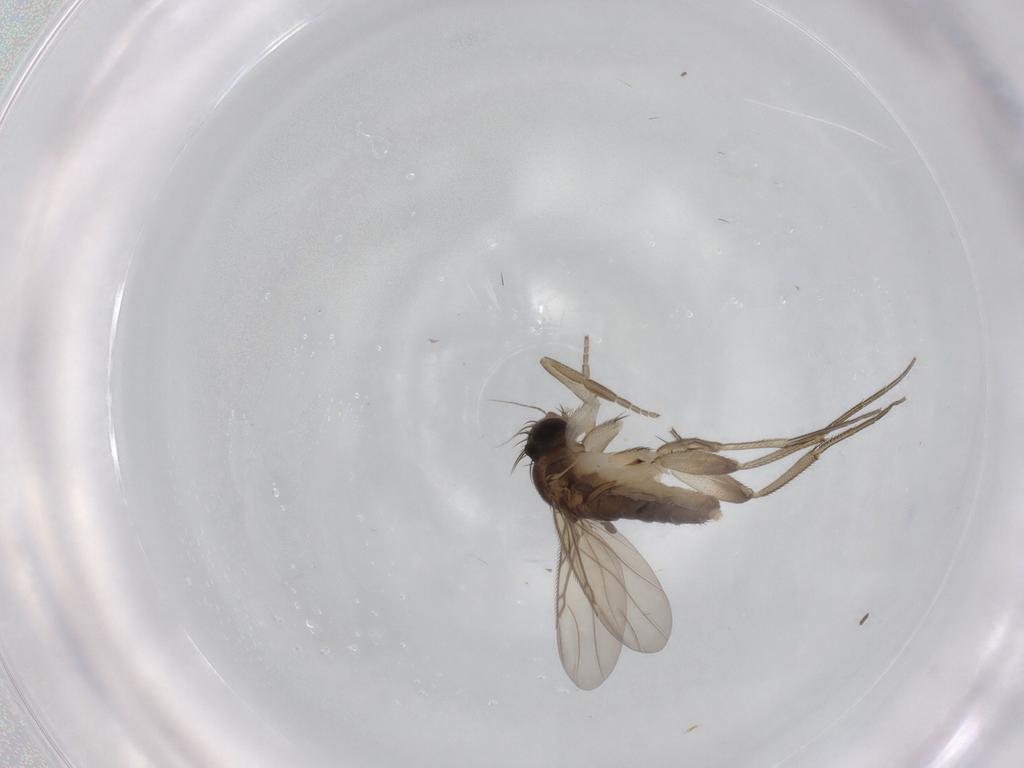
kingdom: Animalia
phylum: Arthropoda
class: Insecta
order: Diptera
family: Phoridae
